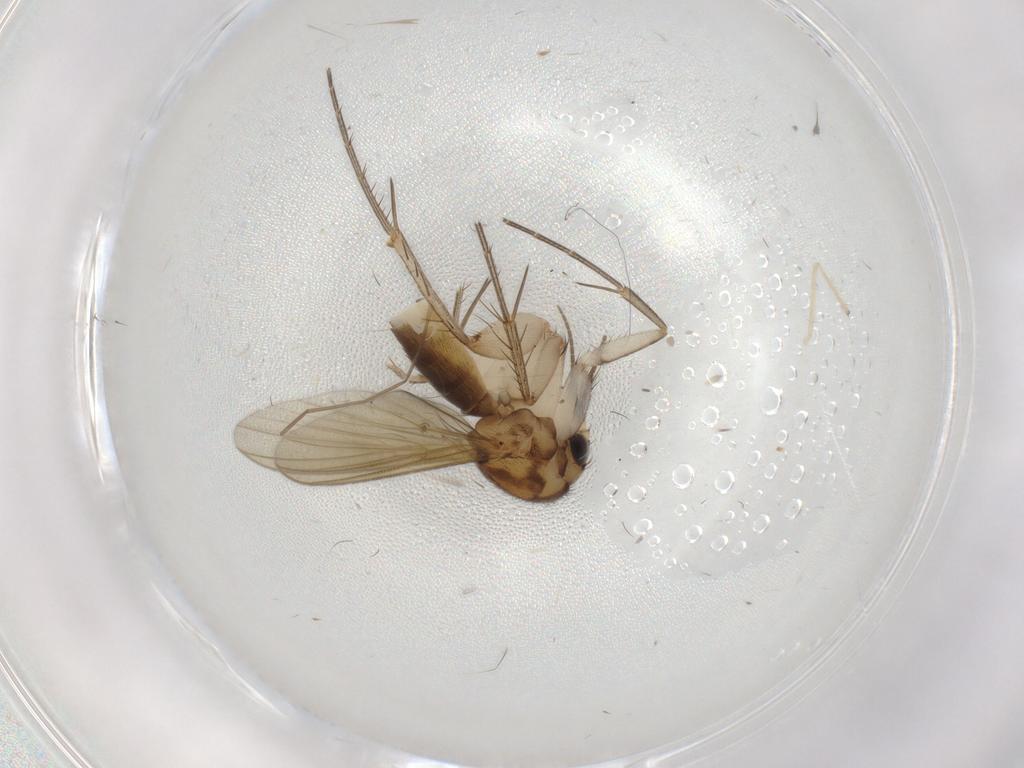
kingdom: Animalia
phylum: Arthropoda
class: Insecta
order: Diptera
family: Mycetophilidae
